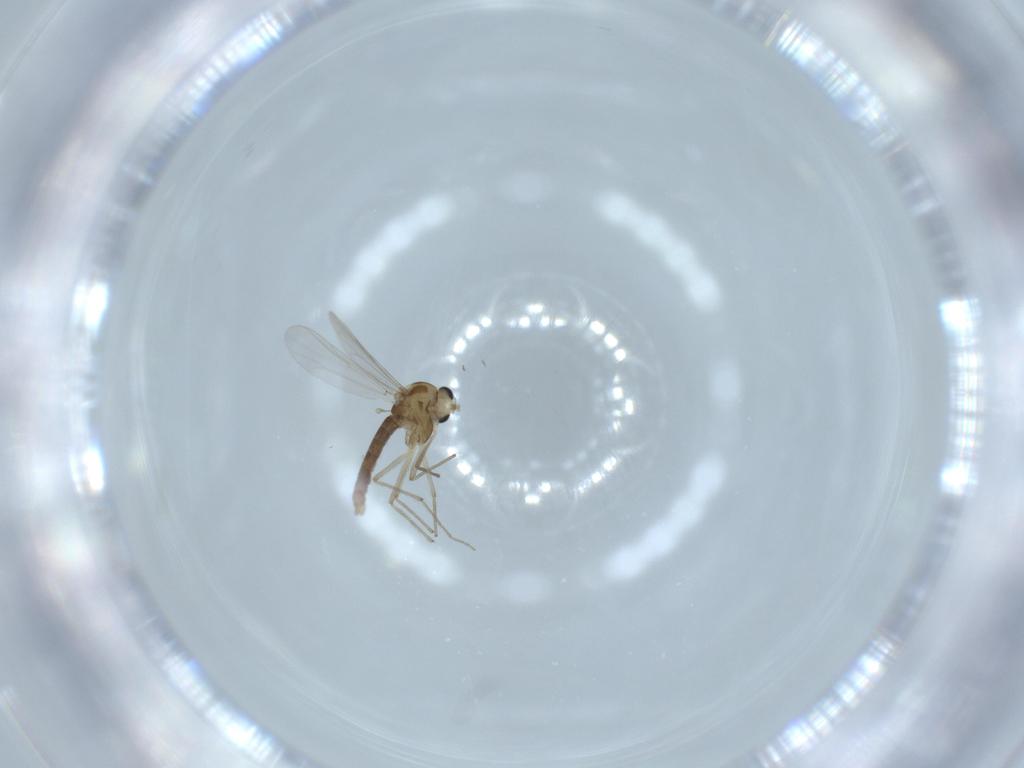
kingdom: Animalia
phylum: Arthropoda
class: Insecta
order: Diptera
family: Chironomidae
